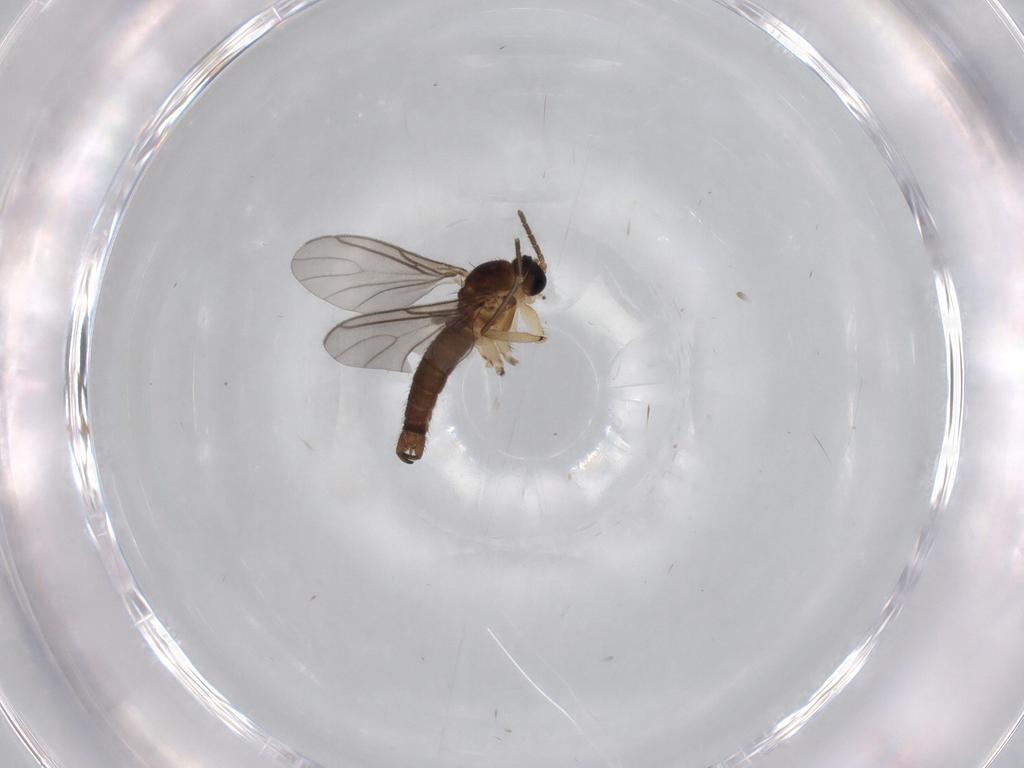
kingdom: Animalia
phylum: Arthropoda
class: Insecta
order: Diptera
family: Sciaridae
